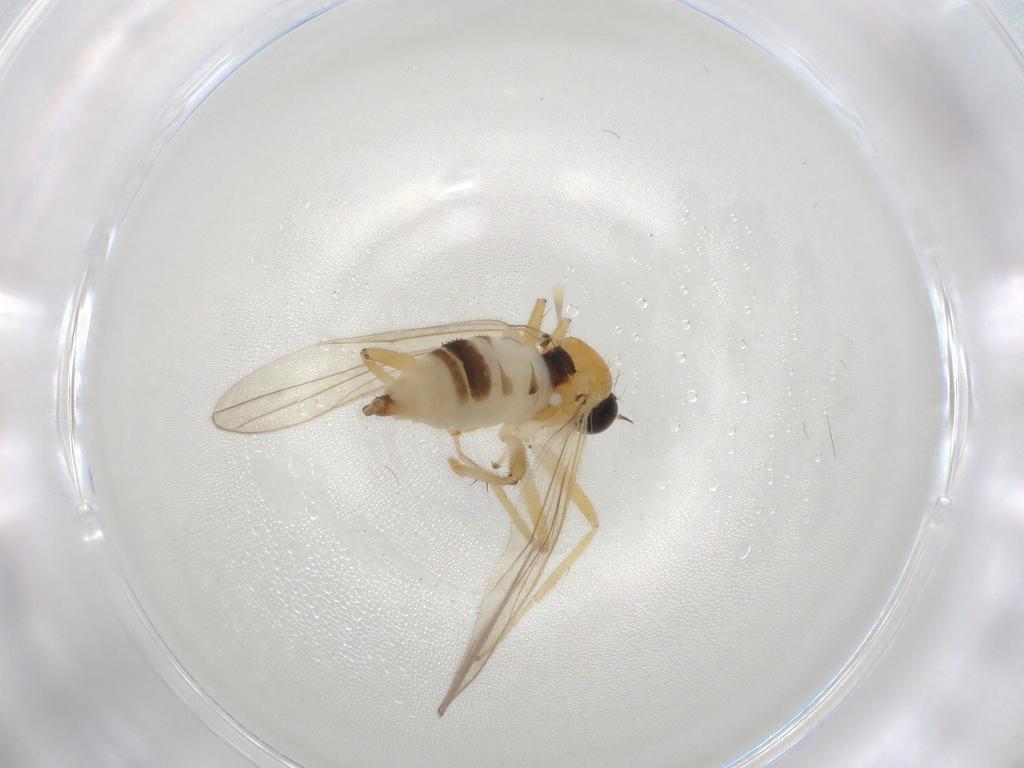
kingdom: Animalia
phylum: Arthropoda
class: Insecta
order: Diptera
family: Hybotidae
